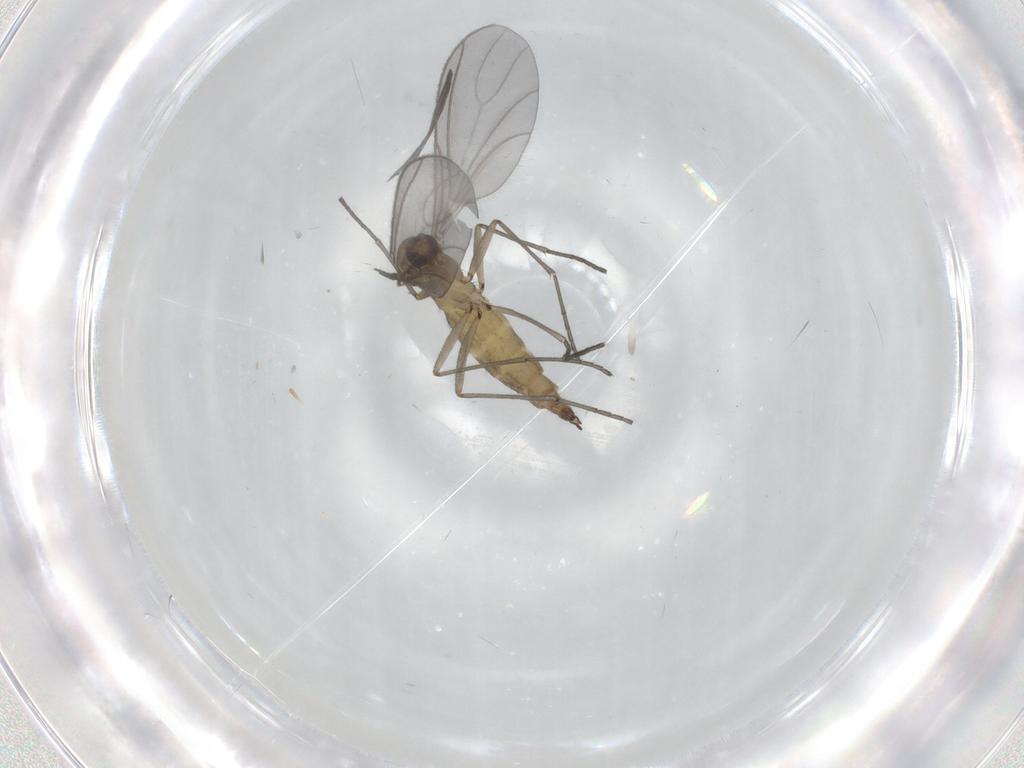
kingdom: Animalia
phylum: Arthropoda
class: Insecta
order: Diptera
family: Sciaridae
